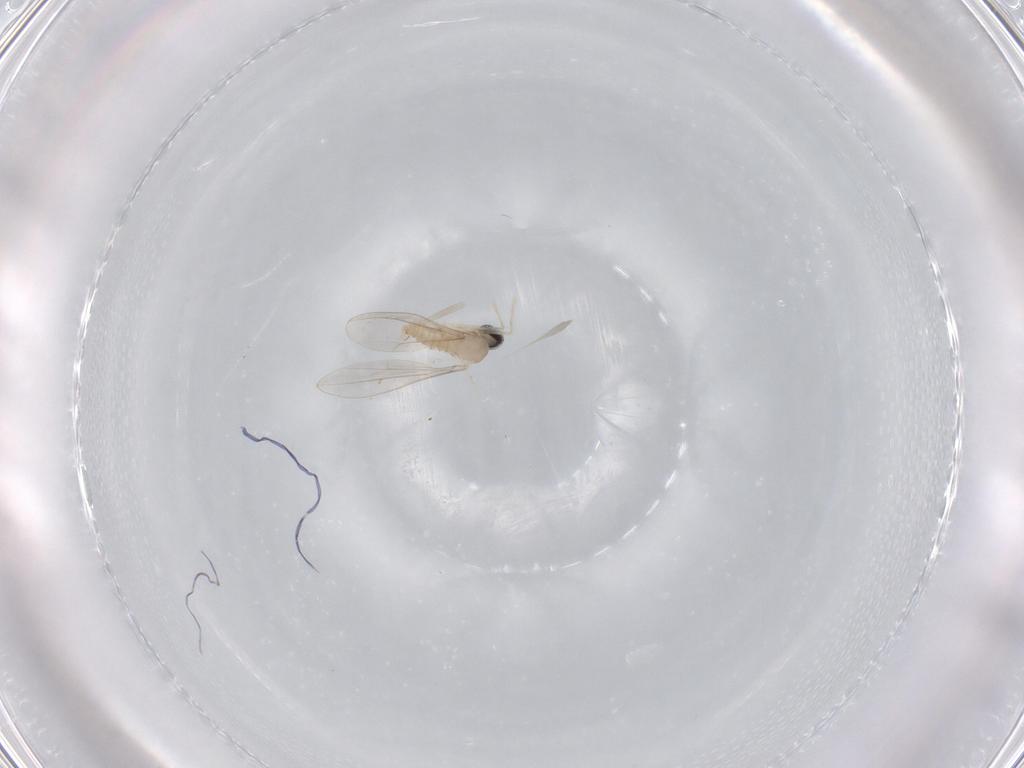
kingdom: Animalia
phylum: Arthropoda
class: Insecta
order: Diptera
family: Cecidomyiidae
